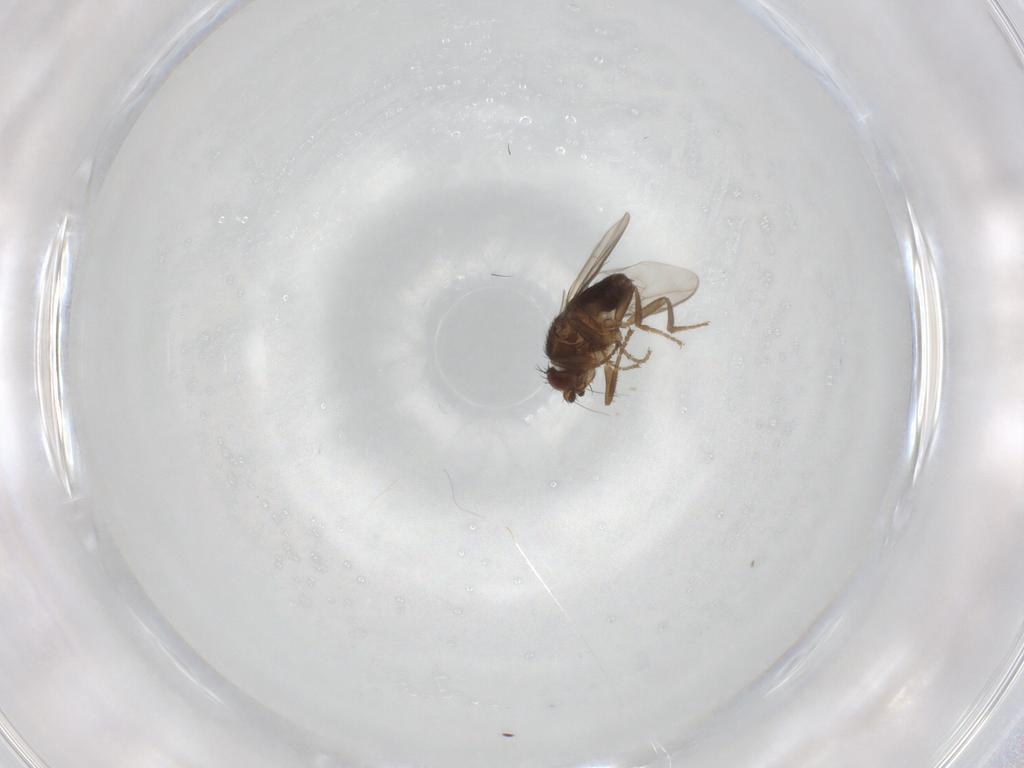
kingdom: Animalia
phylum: Arthropoda
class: Insecta
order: Diptera
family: Sphaeroceridae
